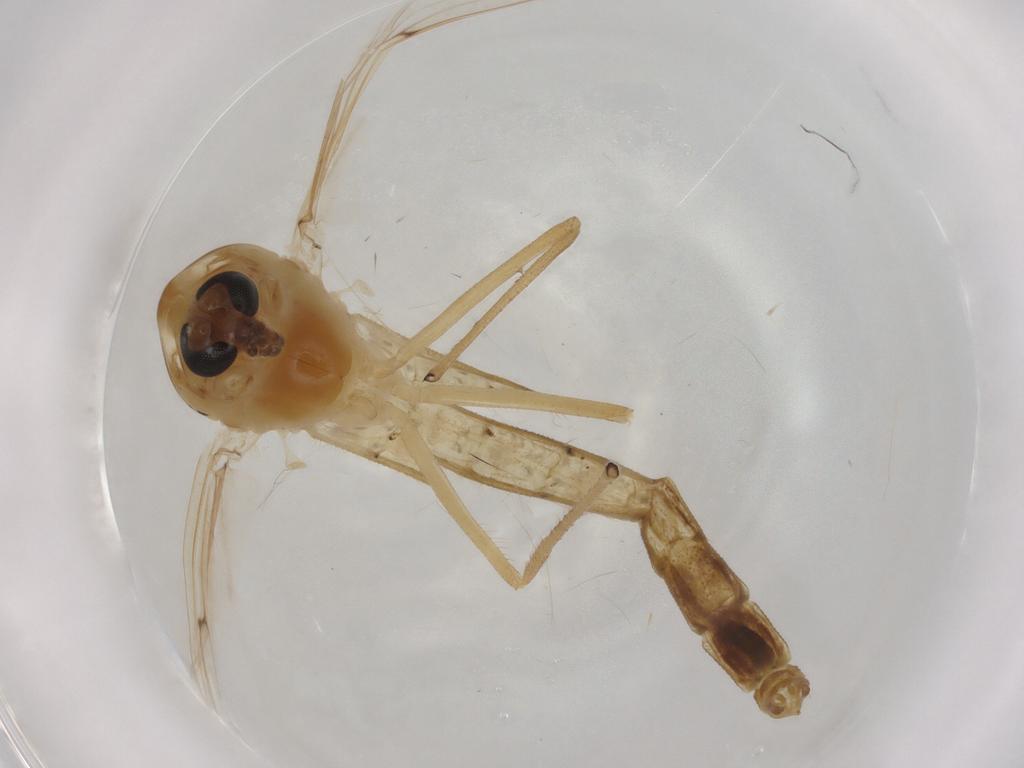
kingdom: Animalia
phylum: Arthropoda
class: Insecta
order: Diptera
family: Chironomidae
